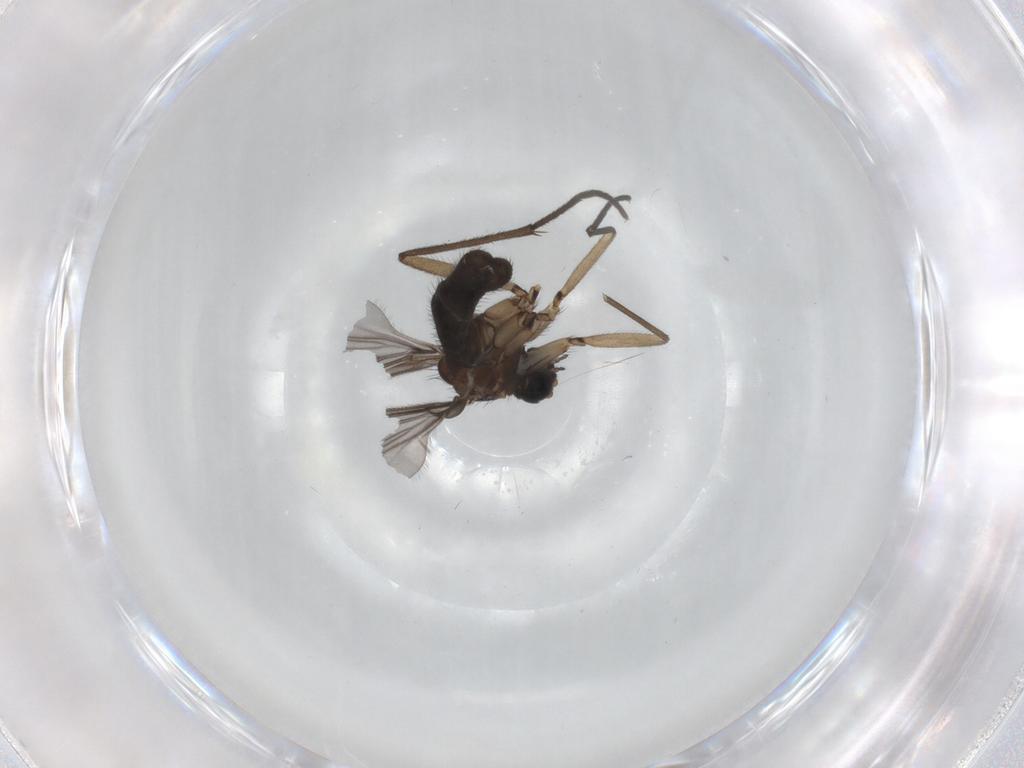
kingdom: Animalia
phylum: Arthropoda
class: Insecta
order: Diptera
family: Sciaridae
